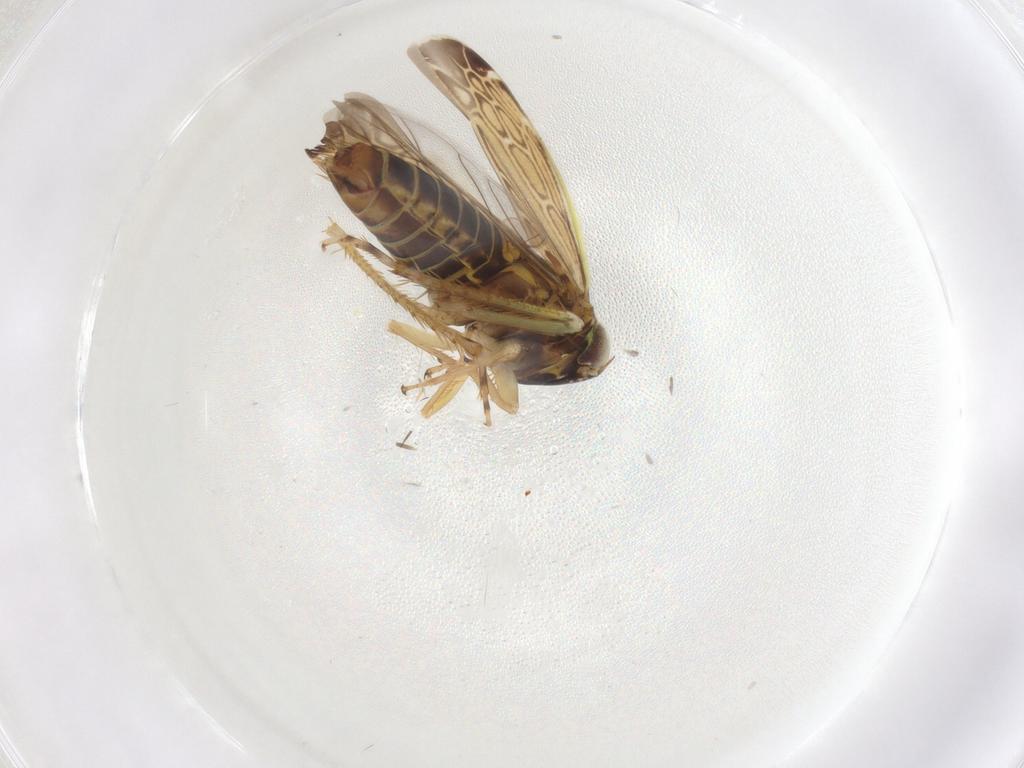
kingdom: Animalia
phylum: Arthropoda
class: Insecta
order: Hemiptera
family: Cicadellidae
